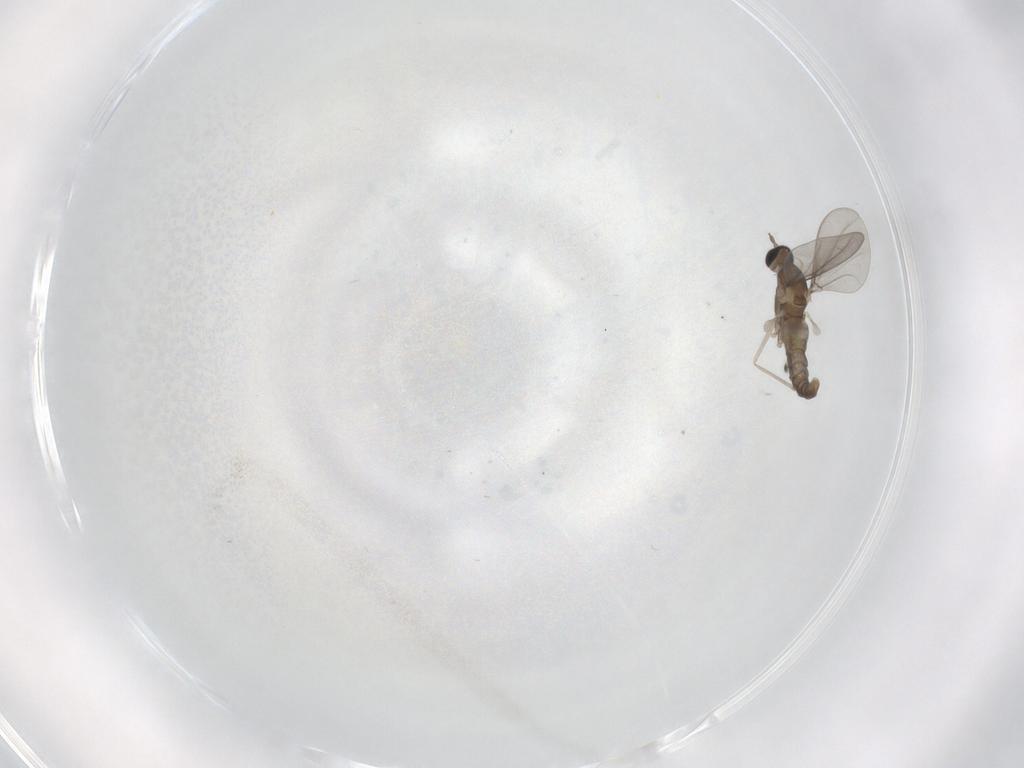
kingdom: Animalia
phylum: Arthropoda
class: Insecta
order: Diptera
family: Cecidomyiidae
